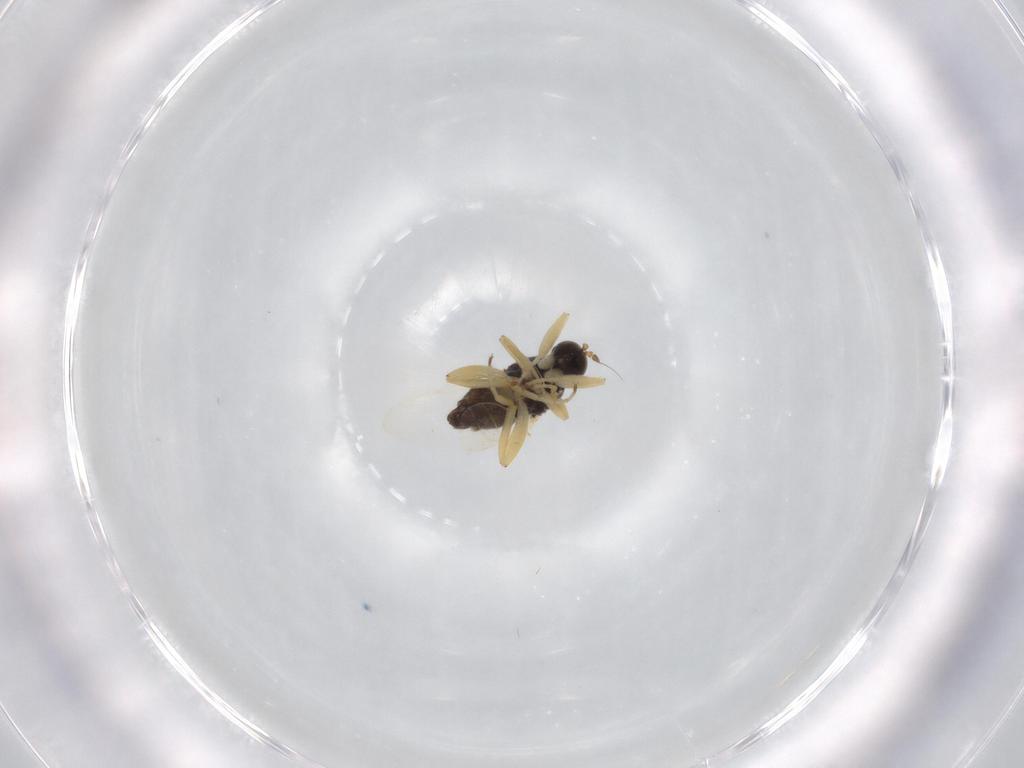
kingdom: Animalia
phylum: Arthropoda
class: Insecta
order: Diptera
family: Hybotidae
